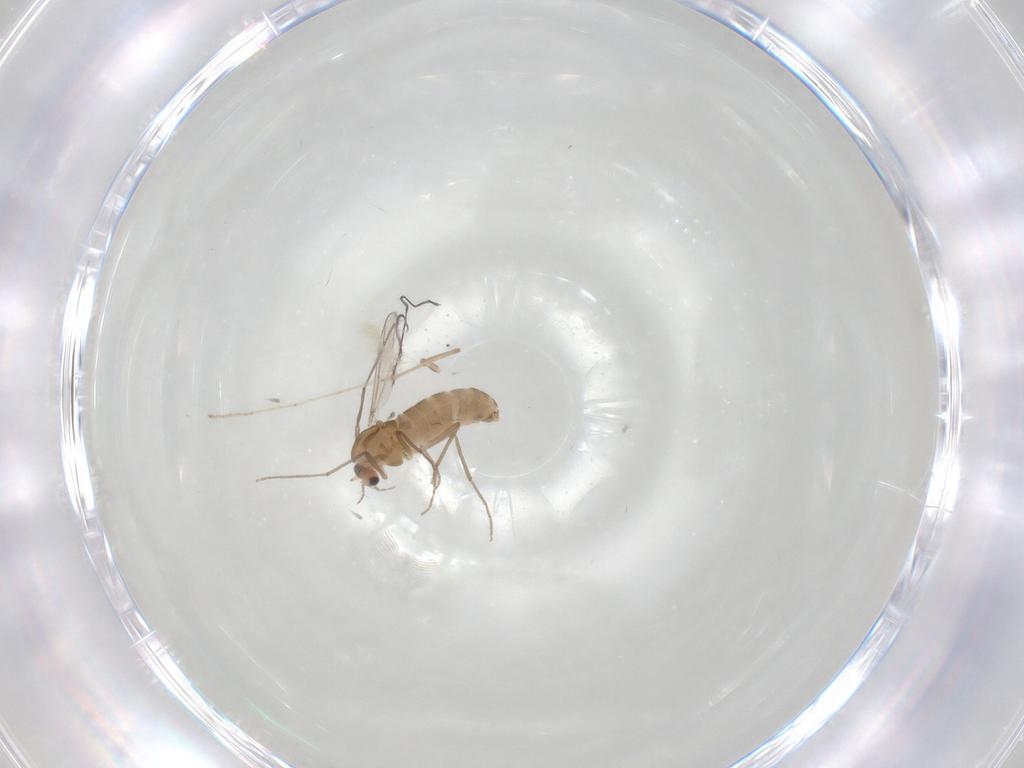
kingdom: Animalia
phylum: Arthropoda
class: Insecta
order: Diptera
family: Chironomidae
